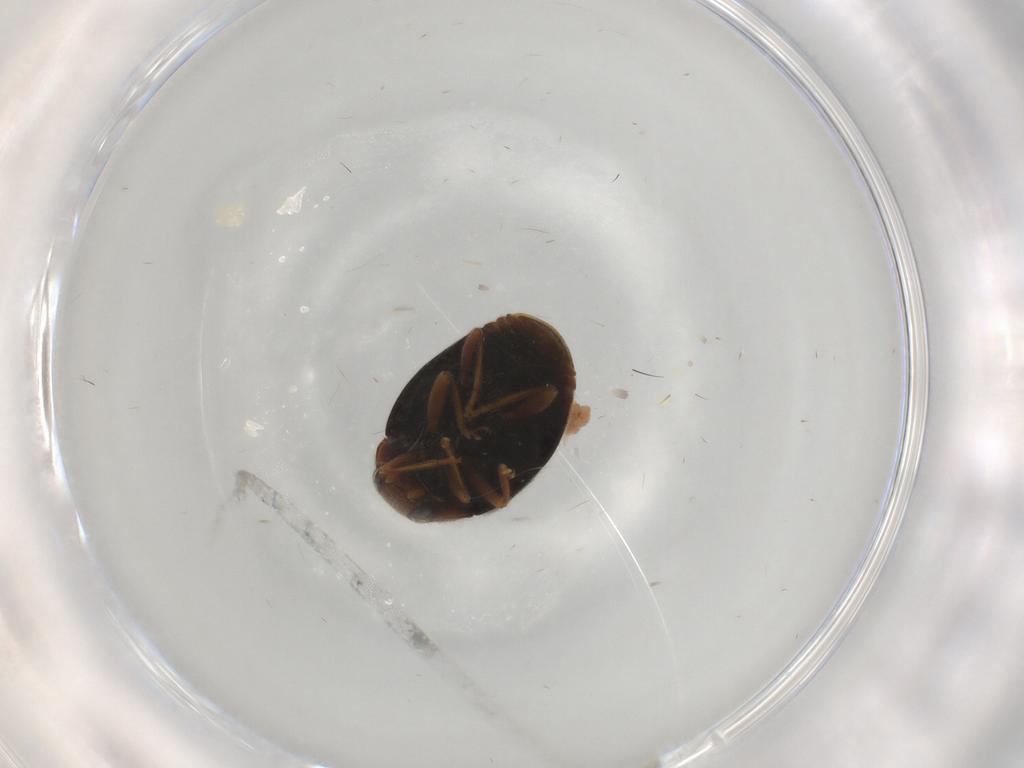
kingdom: Animalia
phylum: Arthropoda
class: Insecta
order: Coleoptera
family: Coccinellidae
